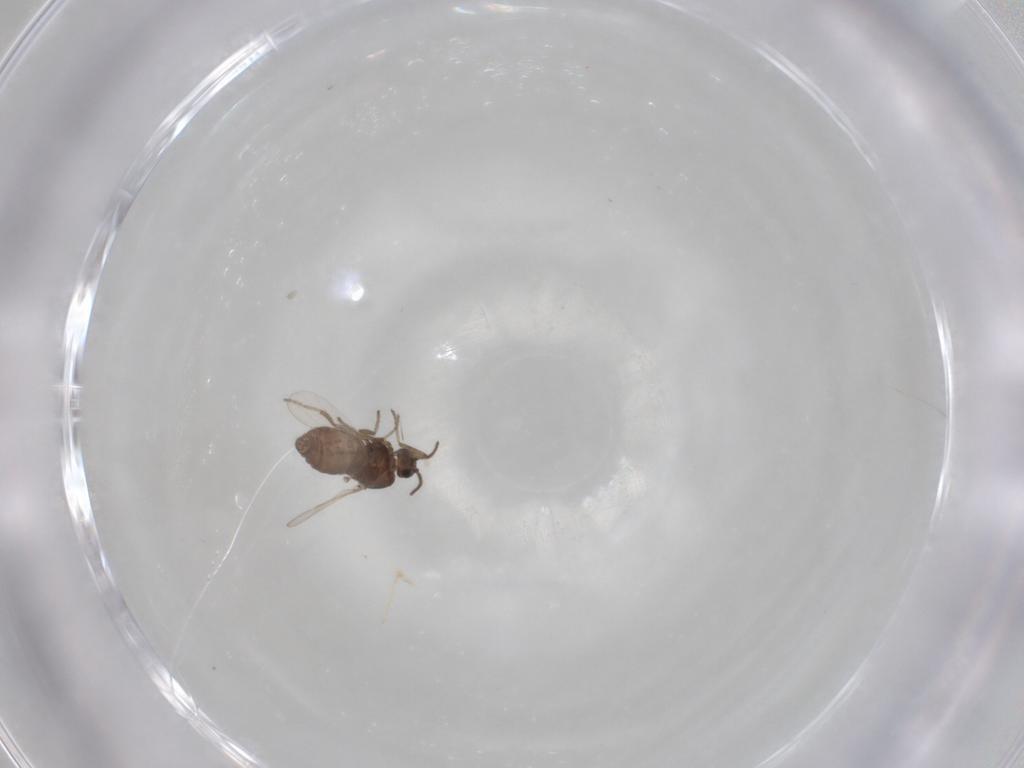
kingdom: Animalia
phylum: Arthropoda
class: Insecta
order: Diptera
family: Ceratopogonidae
